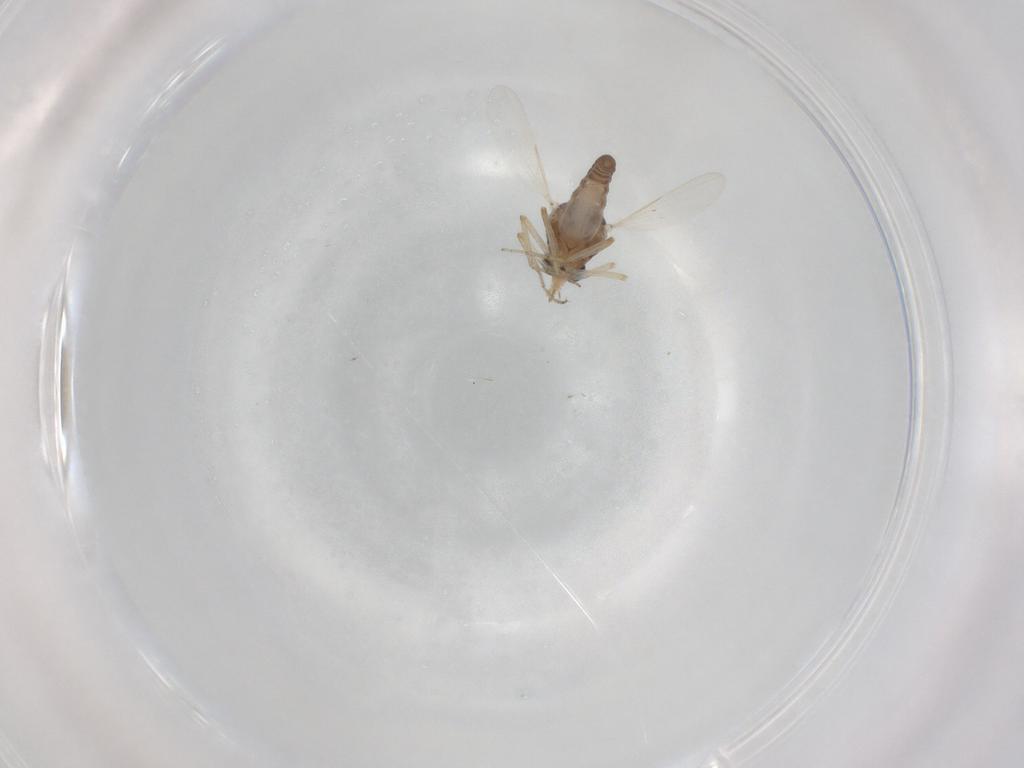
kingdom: Animalia
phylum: Arthropoda
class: Insecta
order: Diptera
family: Ceratopogonidae
